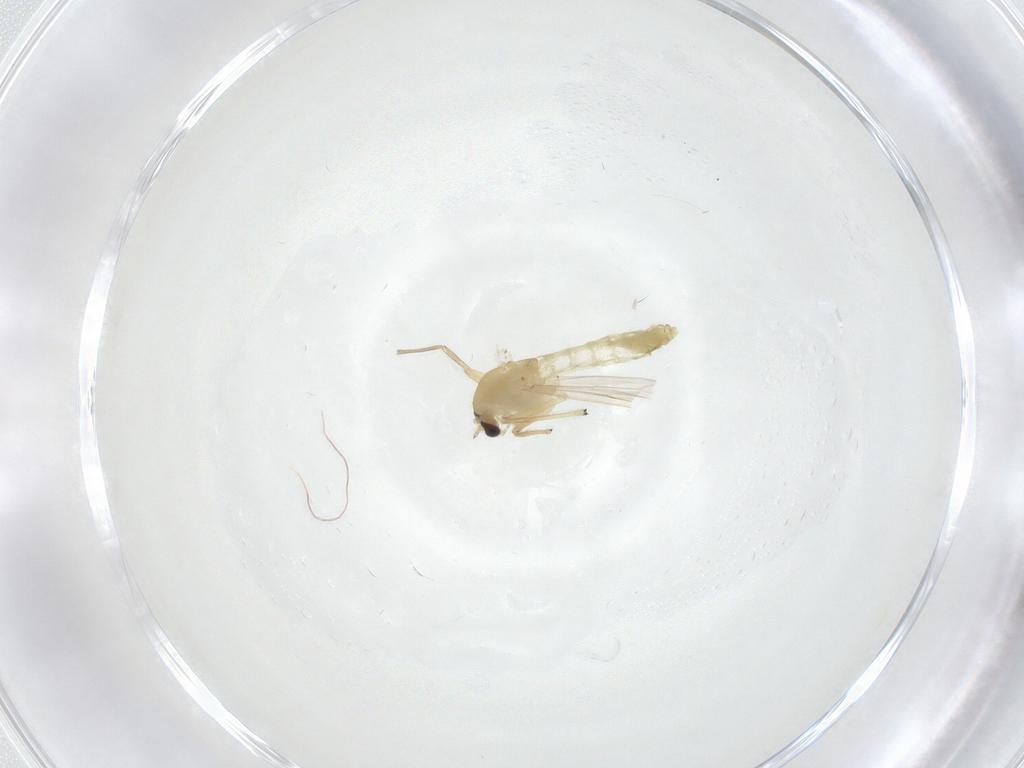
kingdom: Animalia
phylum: Arthropoda
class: Insecta
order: Diptera
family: Chironomidae
